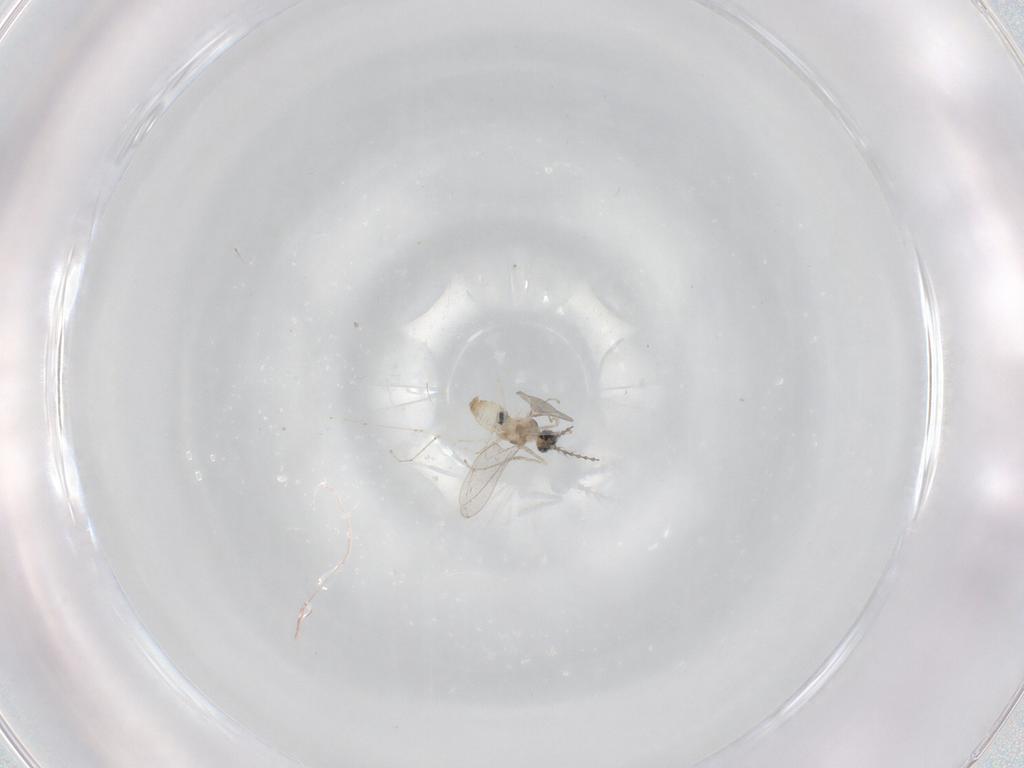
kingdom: Animalia
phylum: Arthropoda
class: Insecta
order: Diptera
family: Cecidomyiidae
